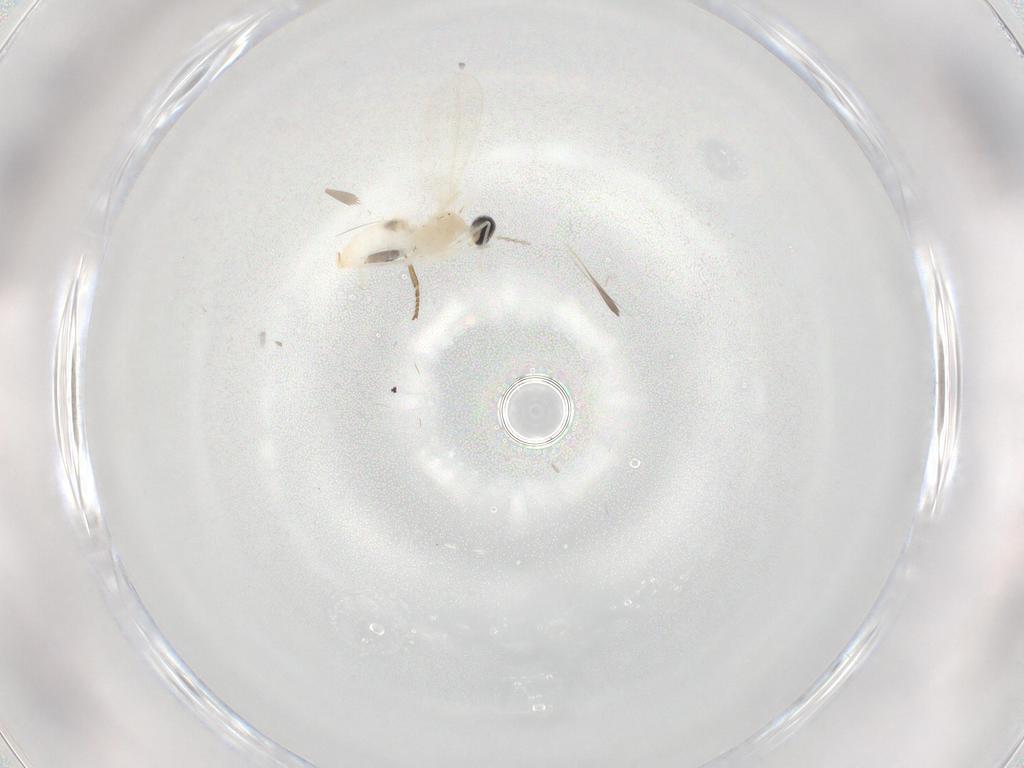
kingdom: Animalia
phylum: Arthropoda
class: Insecta
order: Diptera
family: Cecidomyiidae
